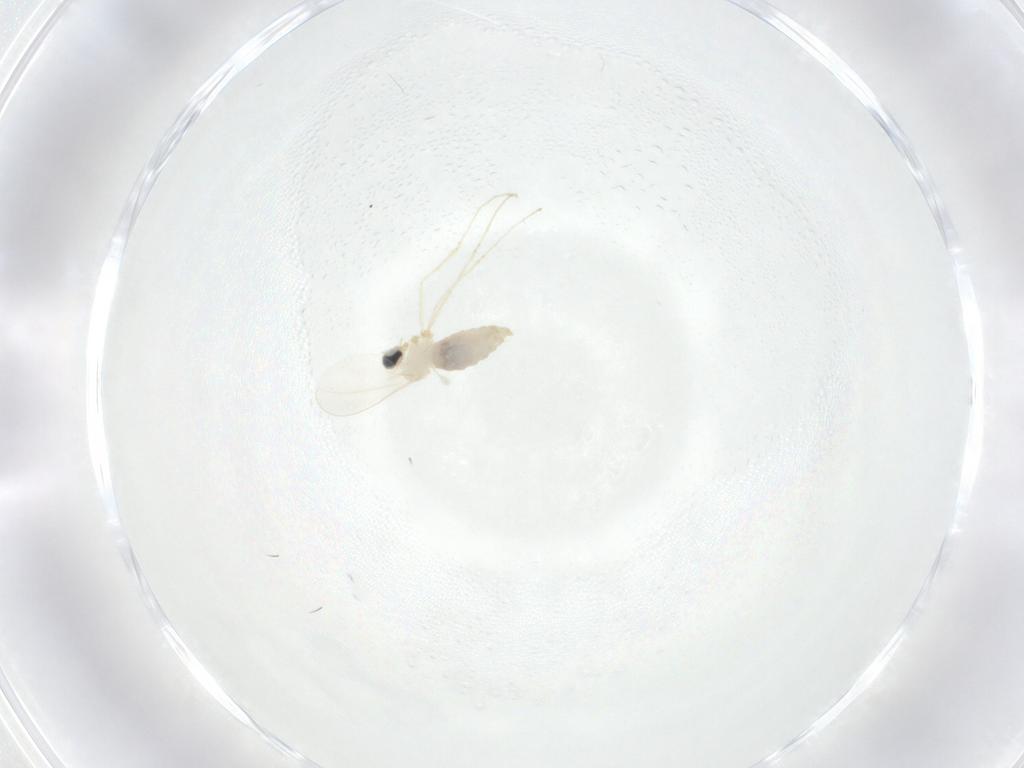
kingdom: Animalia
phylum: Arthropoda
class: Insecta
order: Diptera
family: Cecidomyiidae
